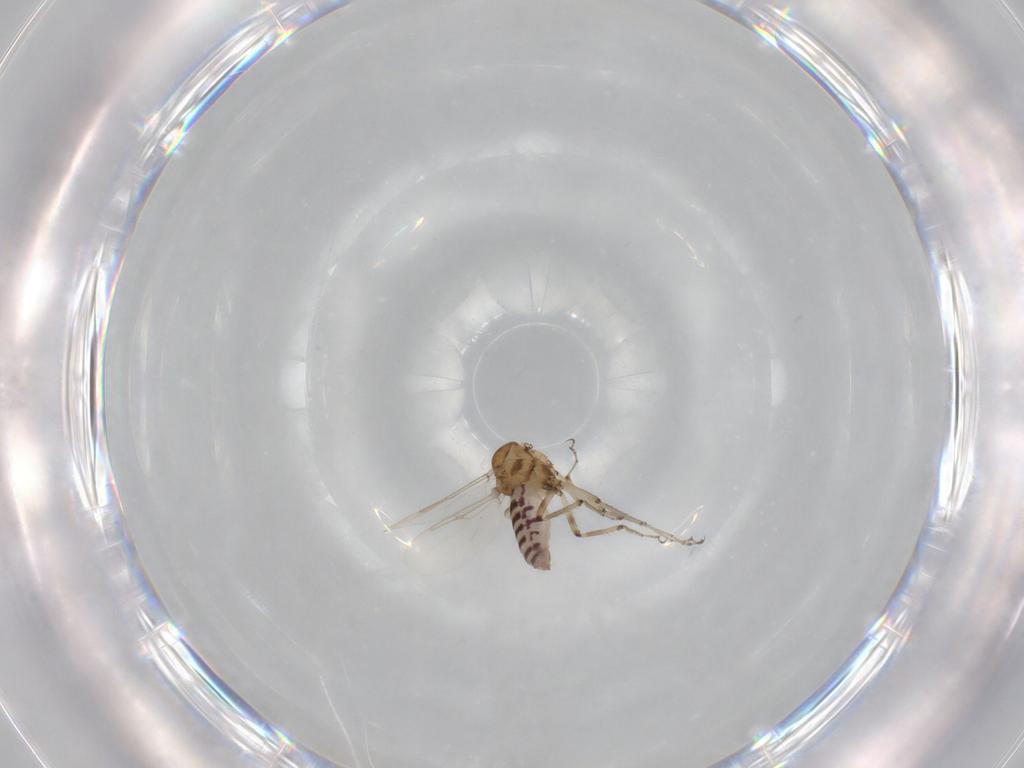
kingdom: Animalia
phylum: Arthropoda
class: Insecta
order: Diptera
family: Ceratopogonidae
